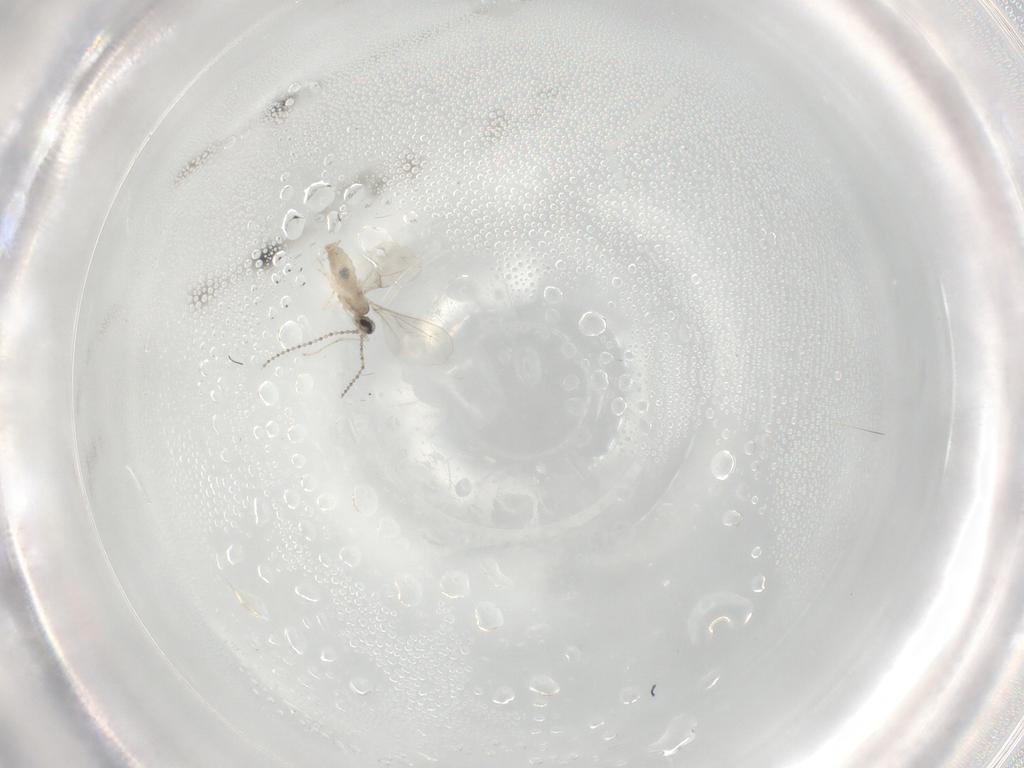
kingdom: Animalia
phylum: Arthropoda
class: Insecta
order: Diptera
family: Cecidomyiidae
